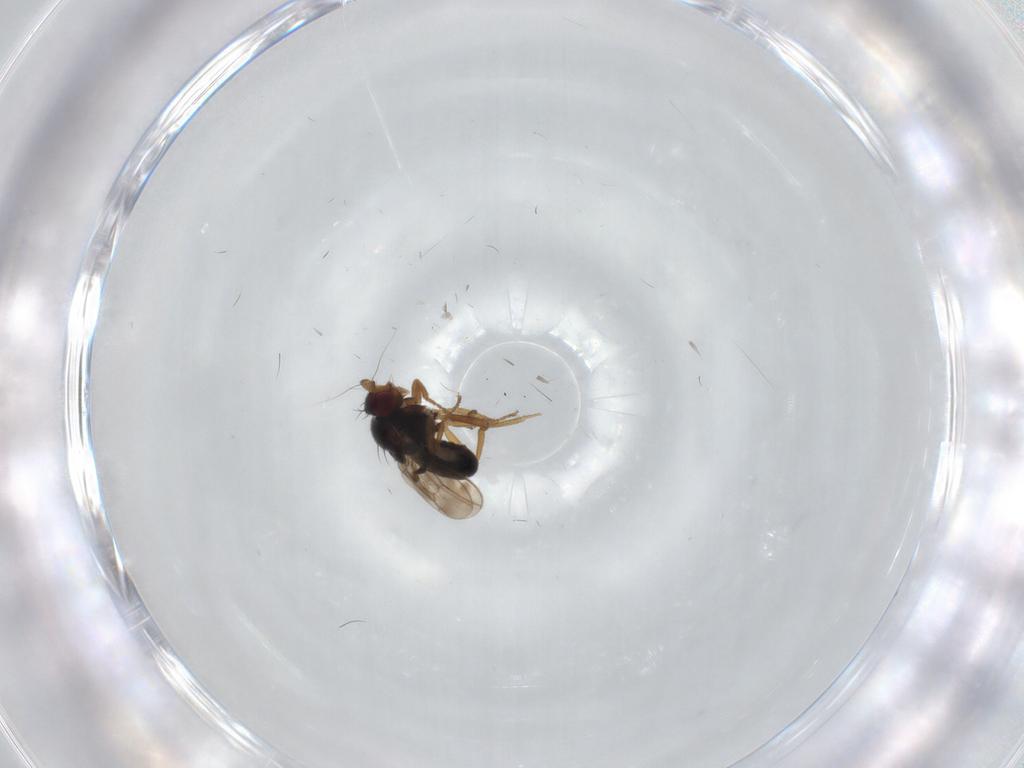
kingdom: Animalia
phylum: Arthropoda
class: Insecta
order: Diptera
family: Sphaeroceridae
